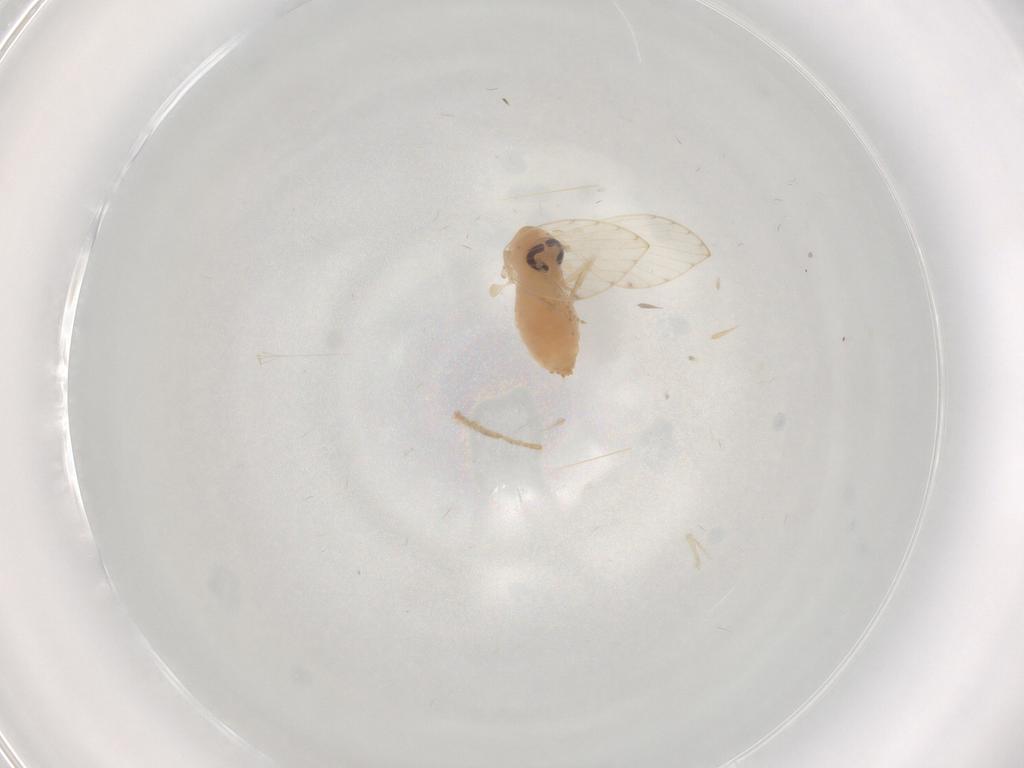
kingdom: Animalia
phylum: Arthropoda
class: Insecta
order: Diptera
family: Psychodidae
